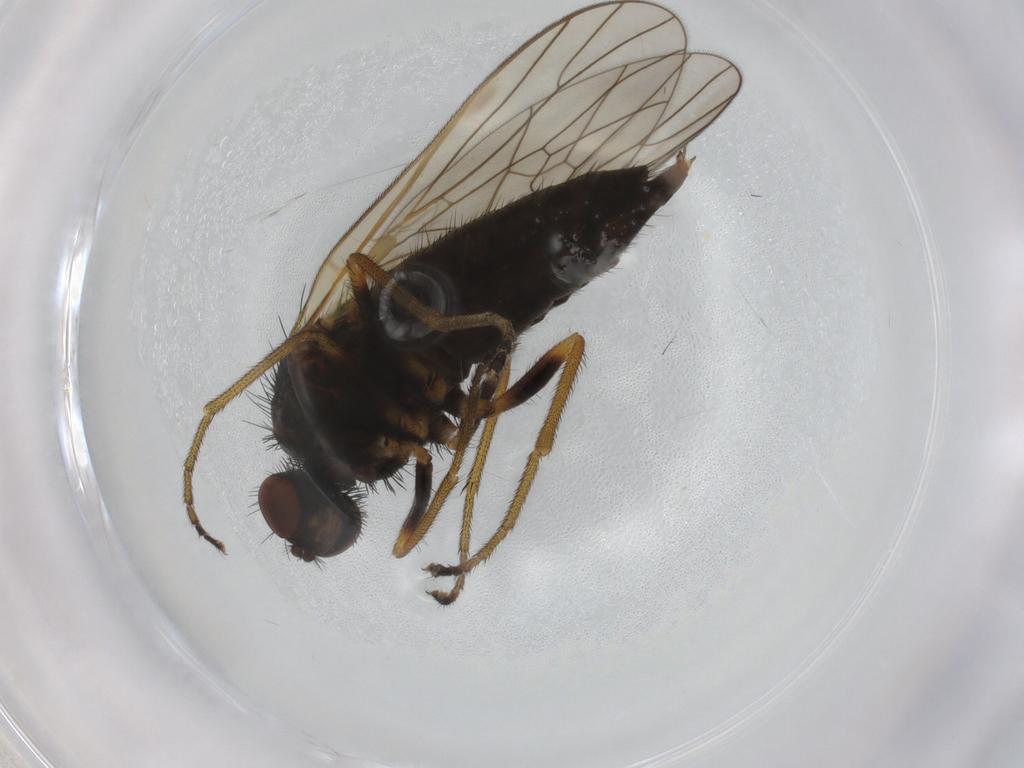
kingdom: Animalia
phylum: Arthropoda
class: Insecta
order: Diptera
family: Brachystomatidae
